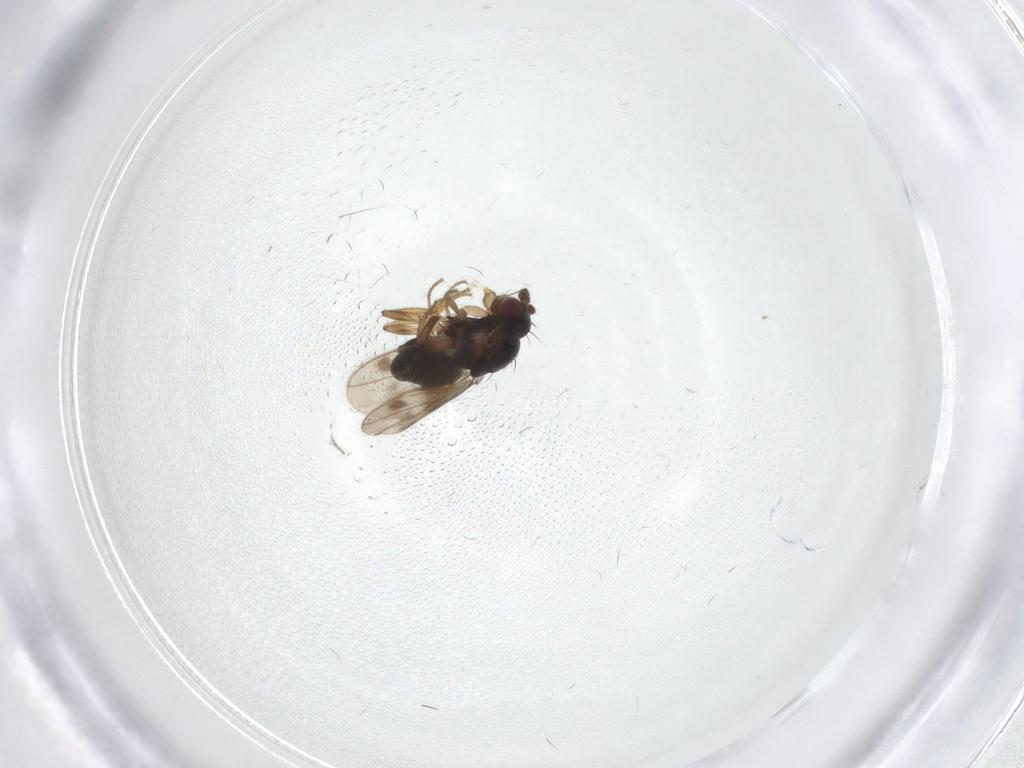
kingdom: Animalia
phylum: Arthropoda
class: Insecta
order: Diptera
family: Sphaeroceridae
